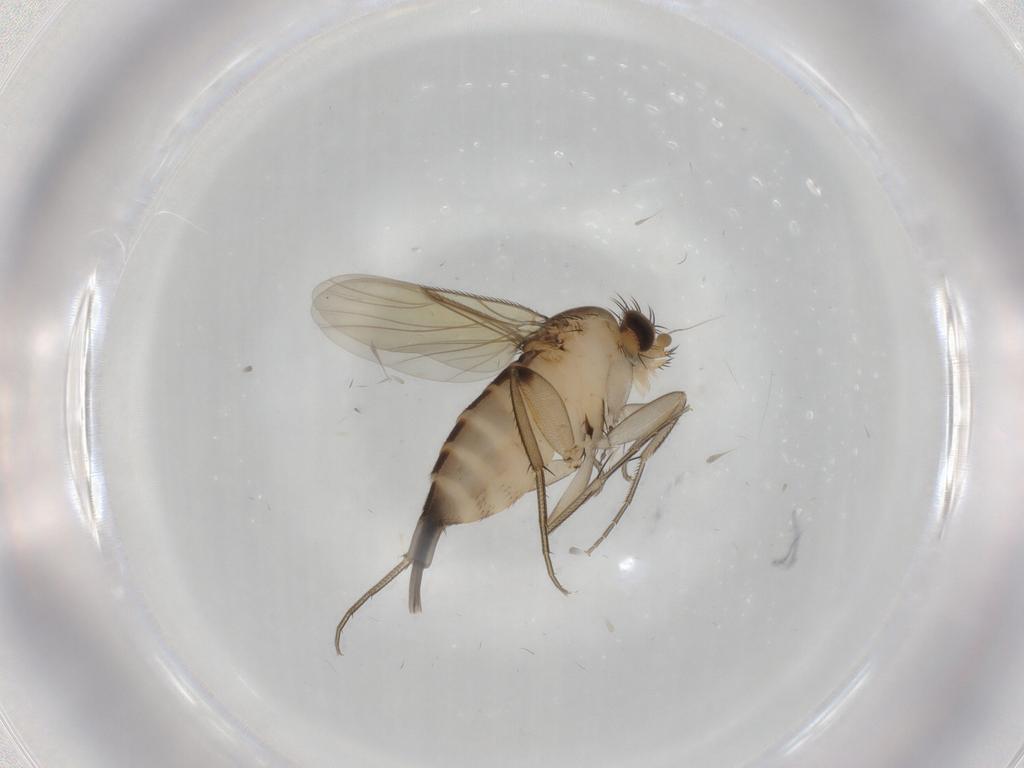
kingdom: Animalia
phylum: Arthropoda
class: Insecta
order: Diptera
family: Phoridae
